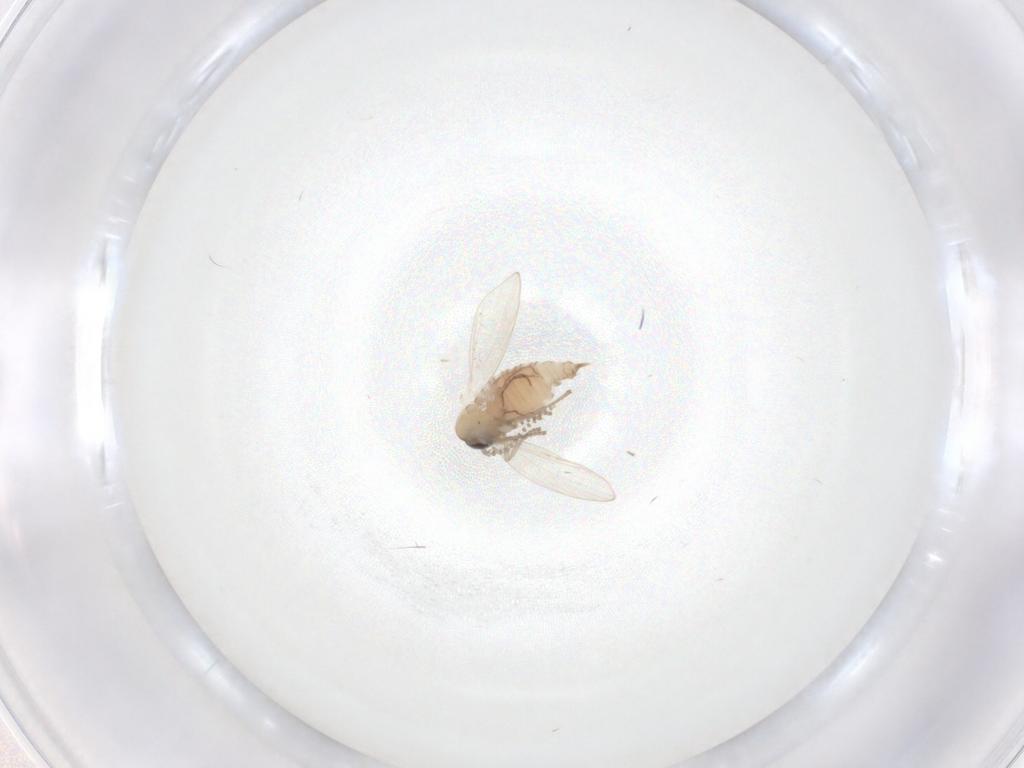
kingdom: Animalia
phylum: Arthropoda
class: Insecta
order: Diptera
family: Psychodidae
